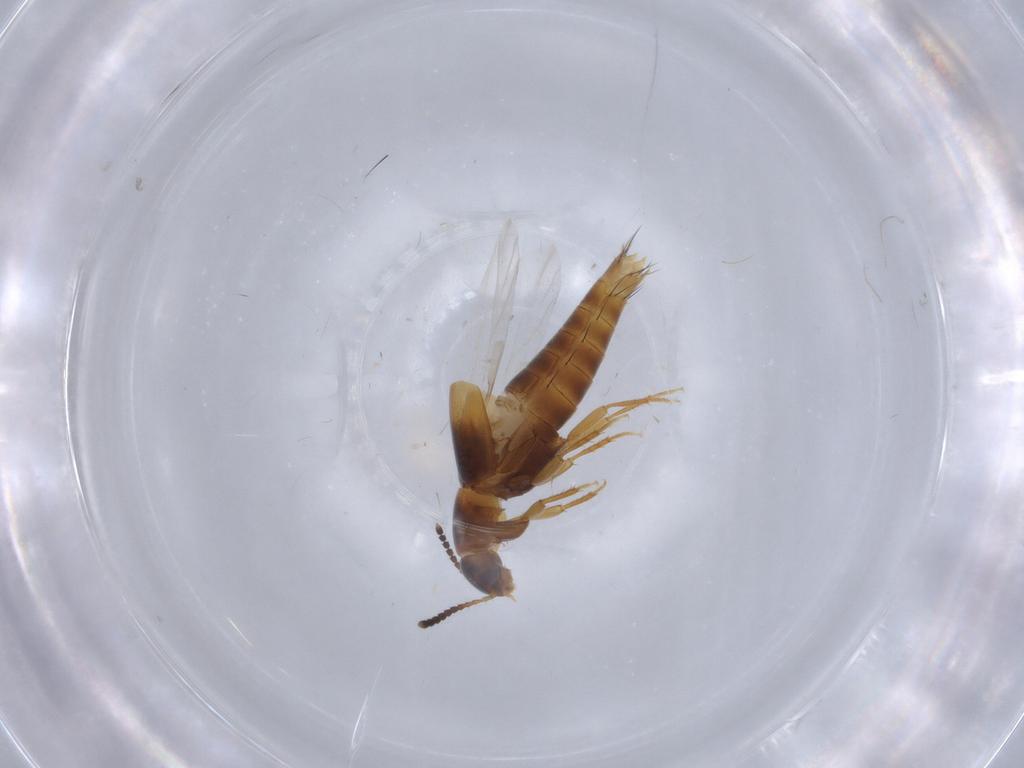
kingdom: Animalia
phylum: Arthropoda
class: Insecta
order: Coleoptera
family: Staphylinidae
